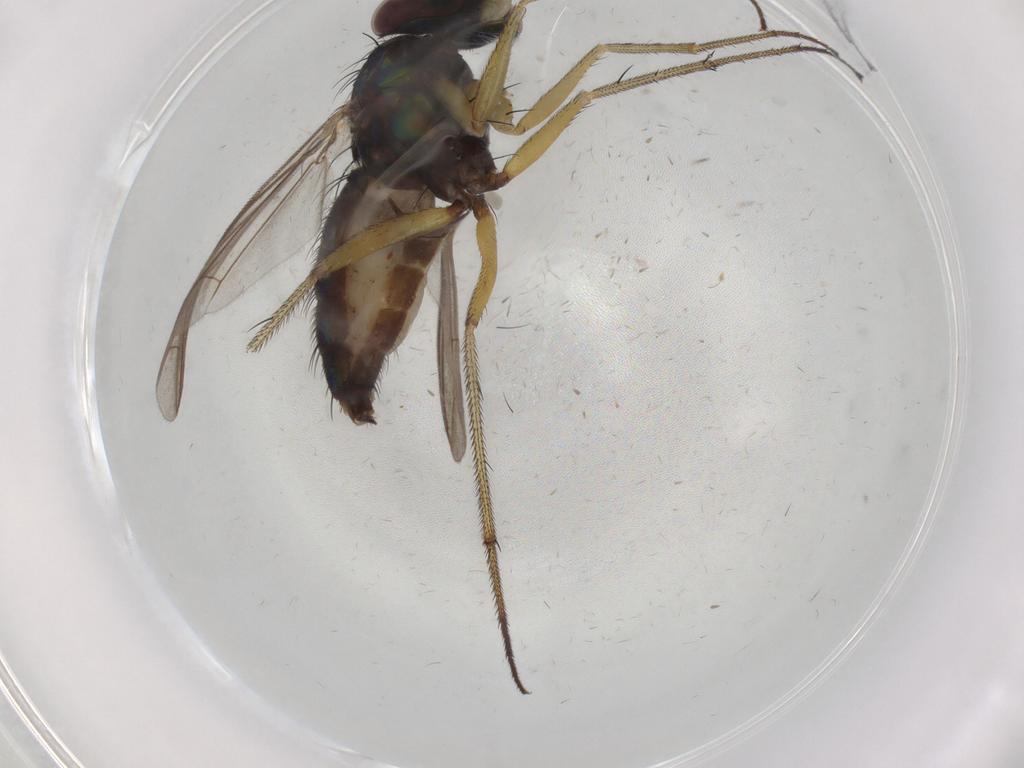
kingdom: Animalia
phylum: Arthropoda
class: Insecta
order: Diptera
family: Dolichopodidae
